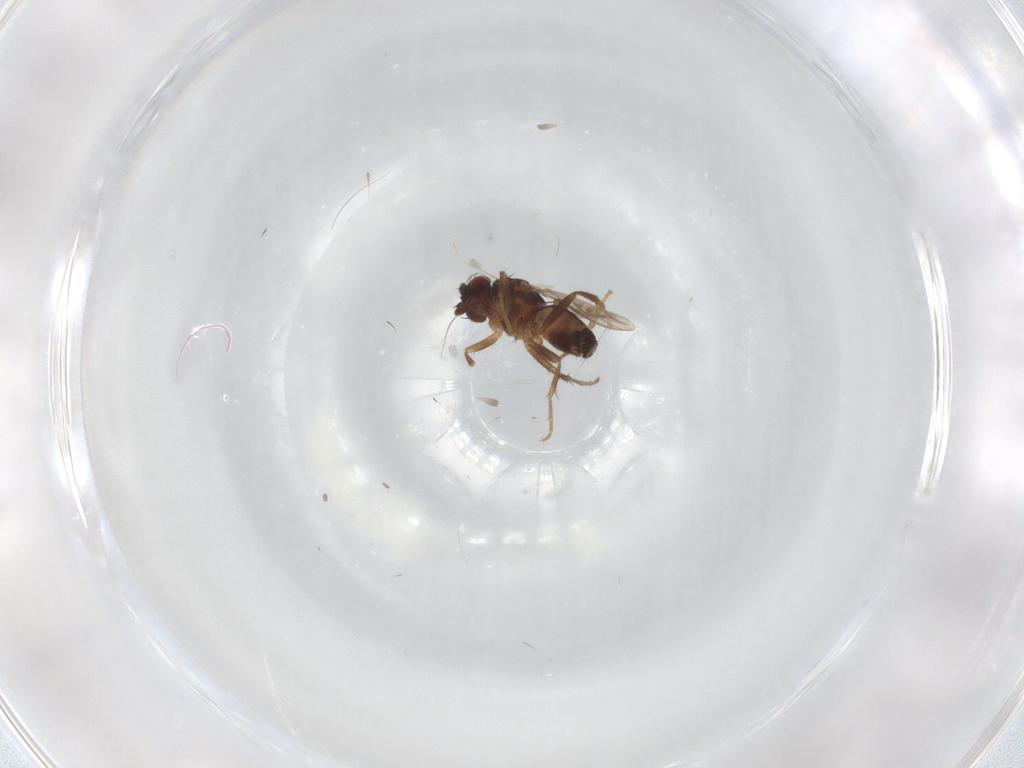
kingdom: Animalia
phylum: Arthropoda
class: Insecta
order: Diptera
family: Sphaeroceridae
